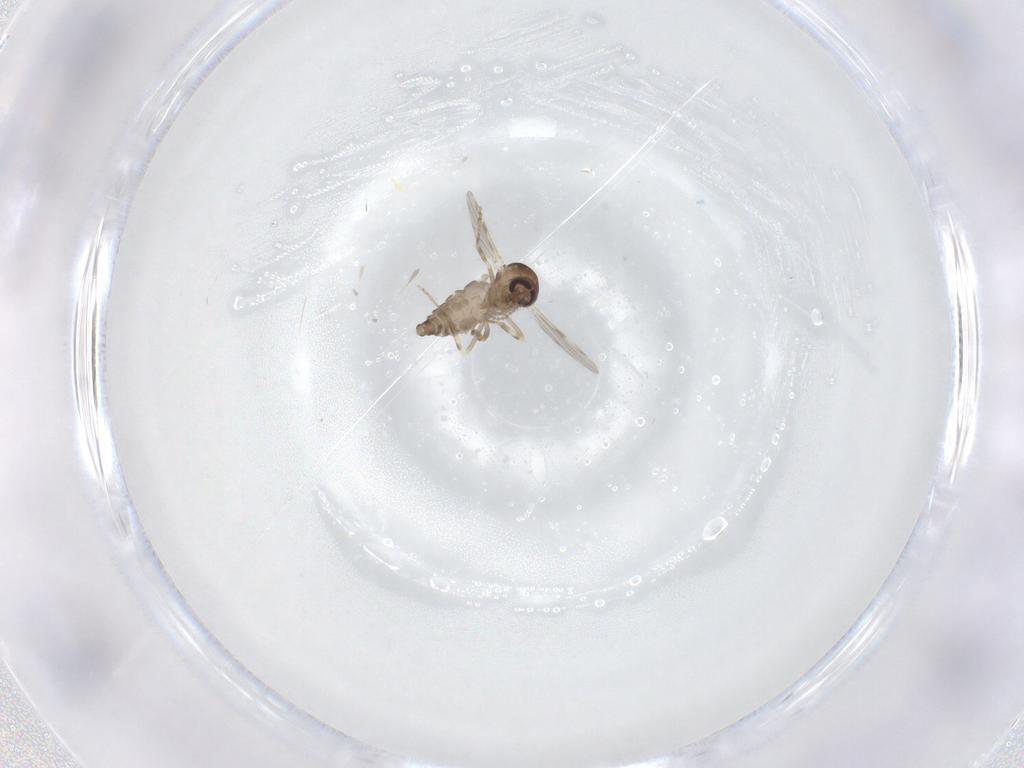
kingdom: Animalia
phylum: Arthropoda
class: Insecta
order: Diptera
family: Ceratopogonidae
